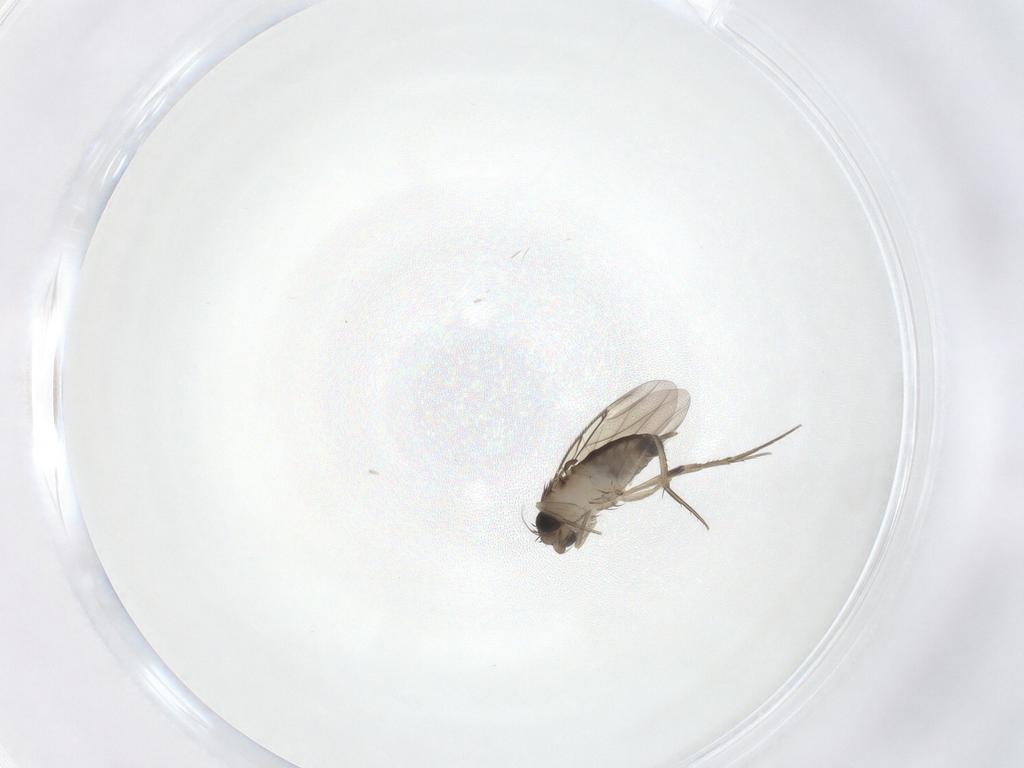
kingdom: Animalia
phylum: Arthropoda
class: Insecta
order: Diptera
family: Phoridae
